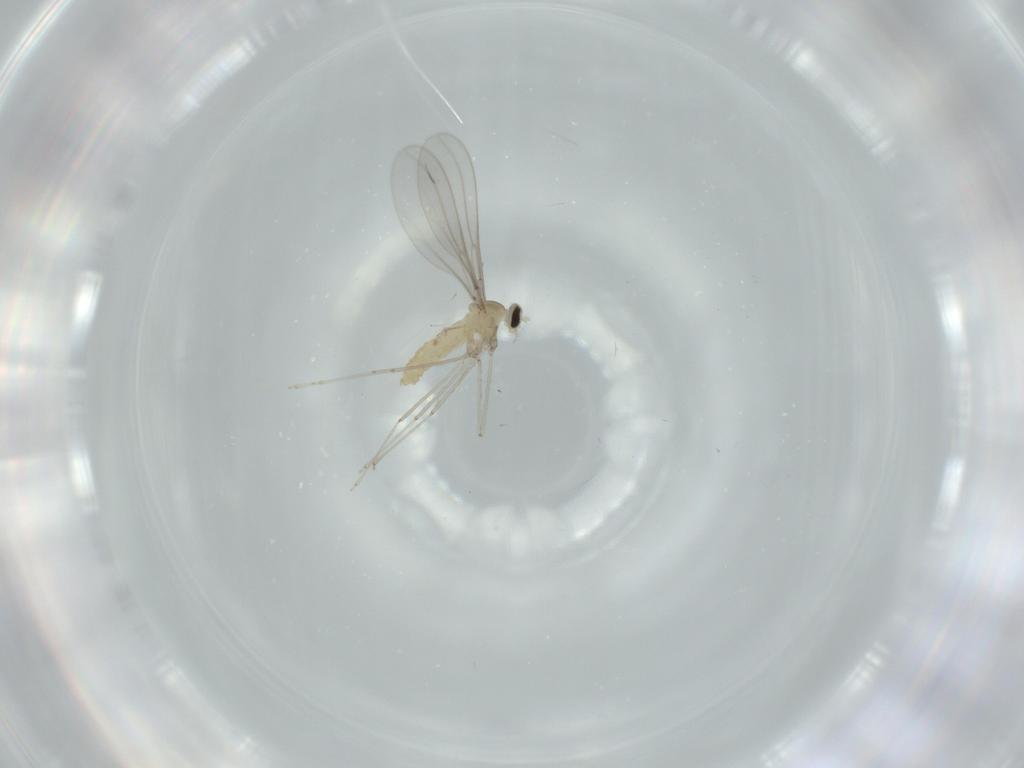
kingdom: Animalia
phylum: Arthropoda
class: Insecta
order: Diptera
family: Cecidomyiidae
